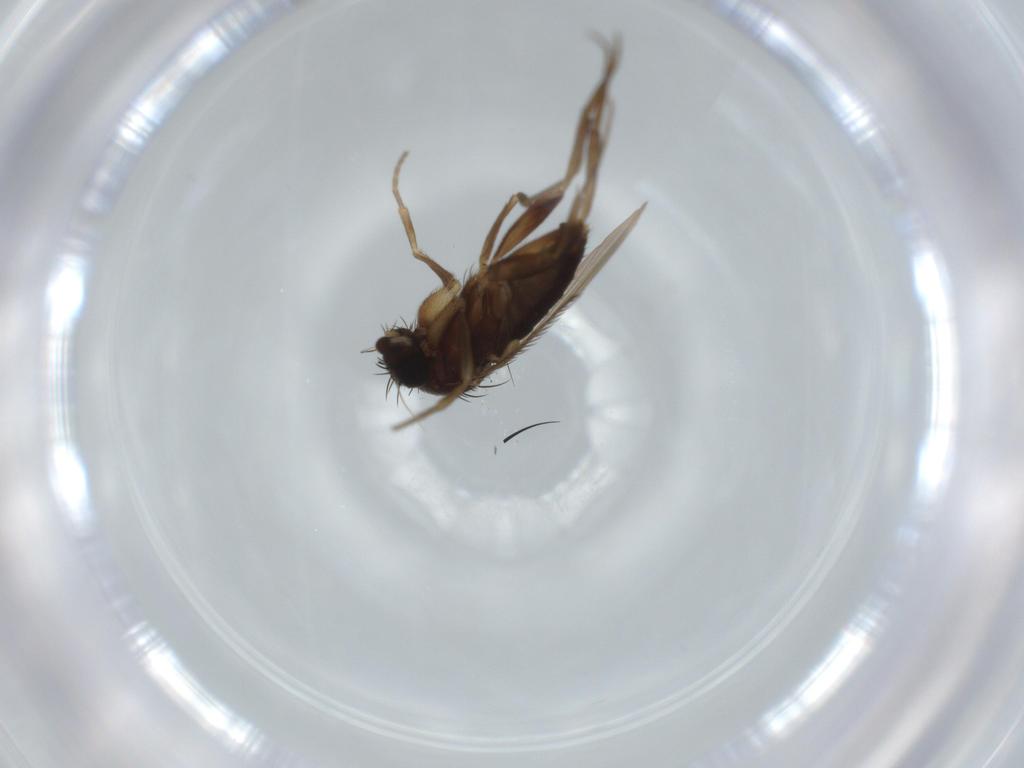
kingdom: Animalia
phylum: Arthropoda
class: Insecta
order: Diptera
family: Phoridae
